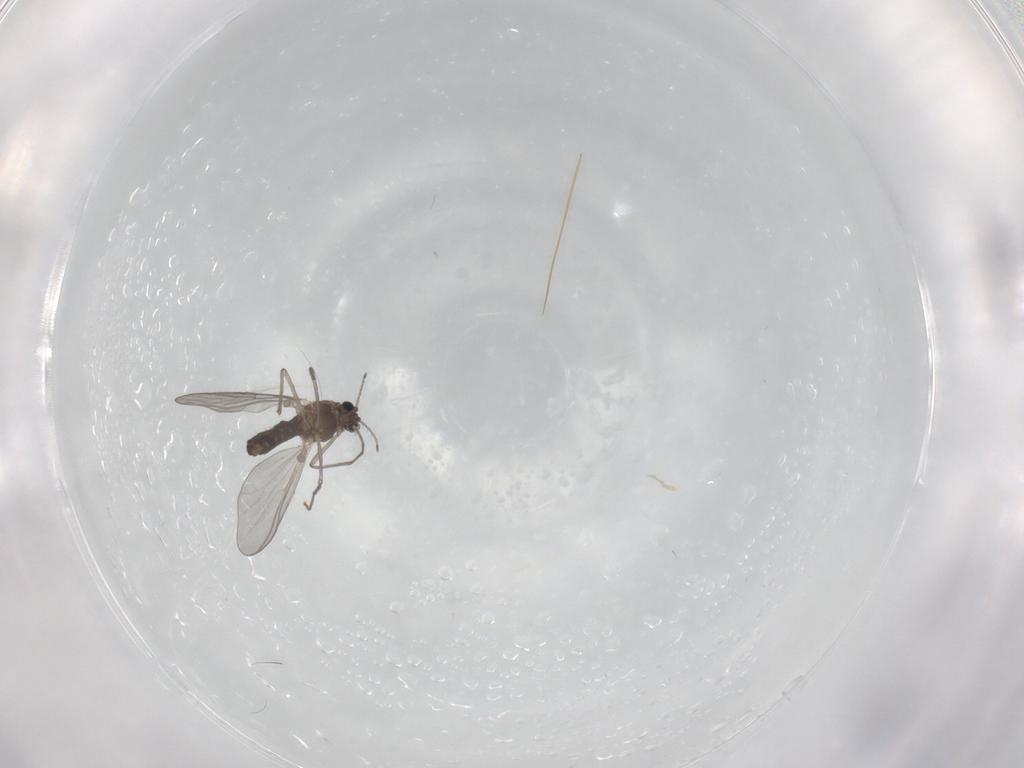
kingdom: Animalia
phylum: Arthropoda
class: Insecta
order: Diptera
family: Chironomidae
